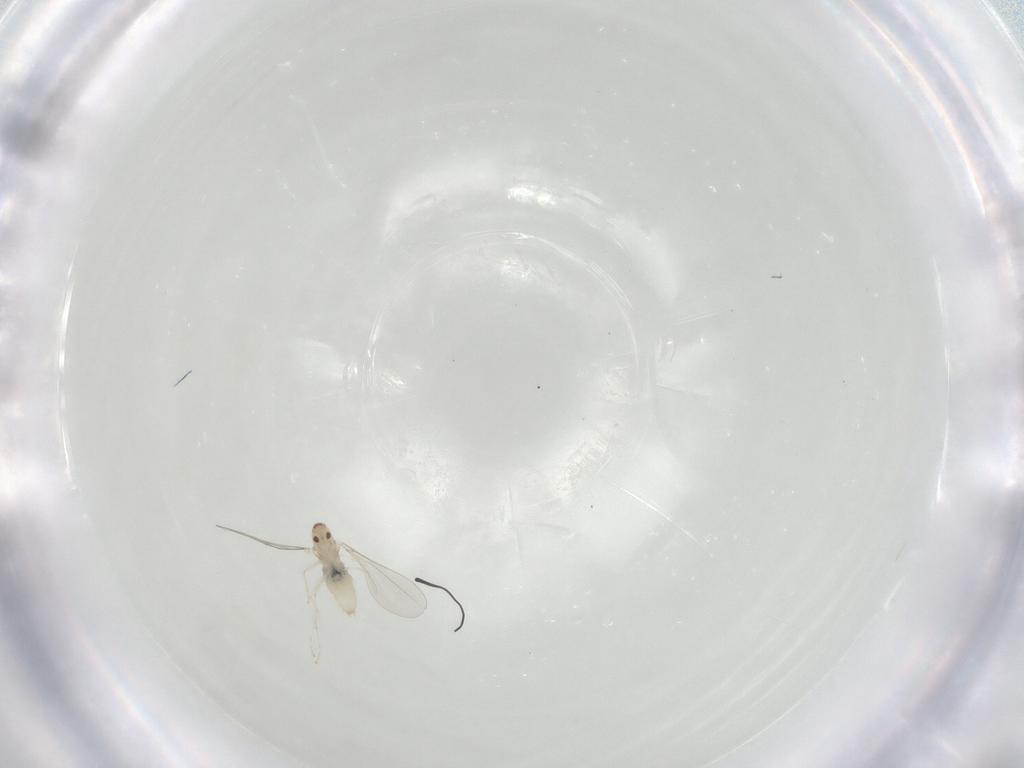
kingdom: Animalia
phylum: Arthropoda
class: Insecta
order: Diptera
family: Cecidomyiidae
